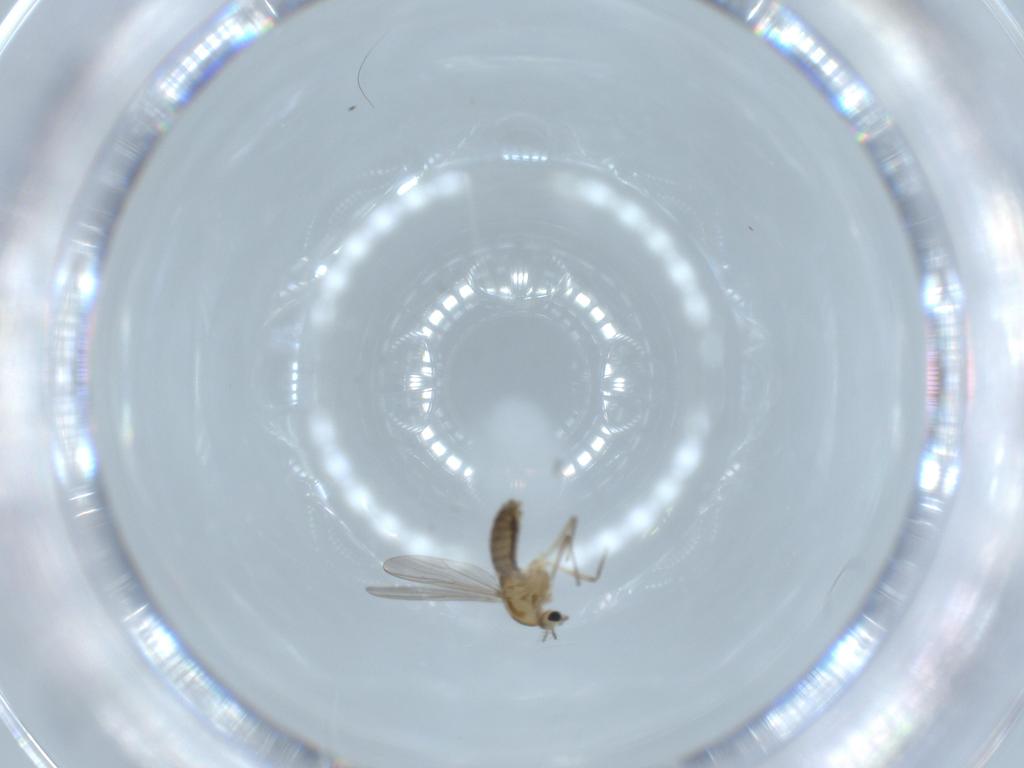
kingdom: Animalia
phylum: Arthropoda
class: Insecta
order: Diptera
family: Chironomidae
